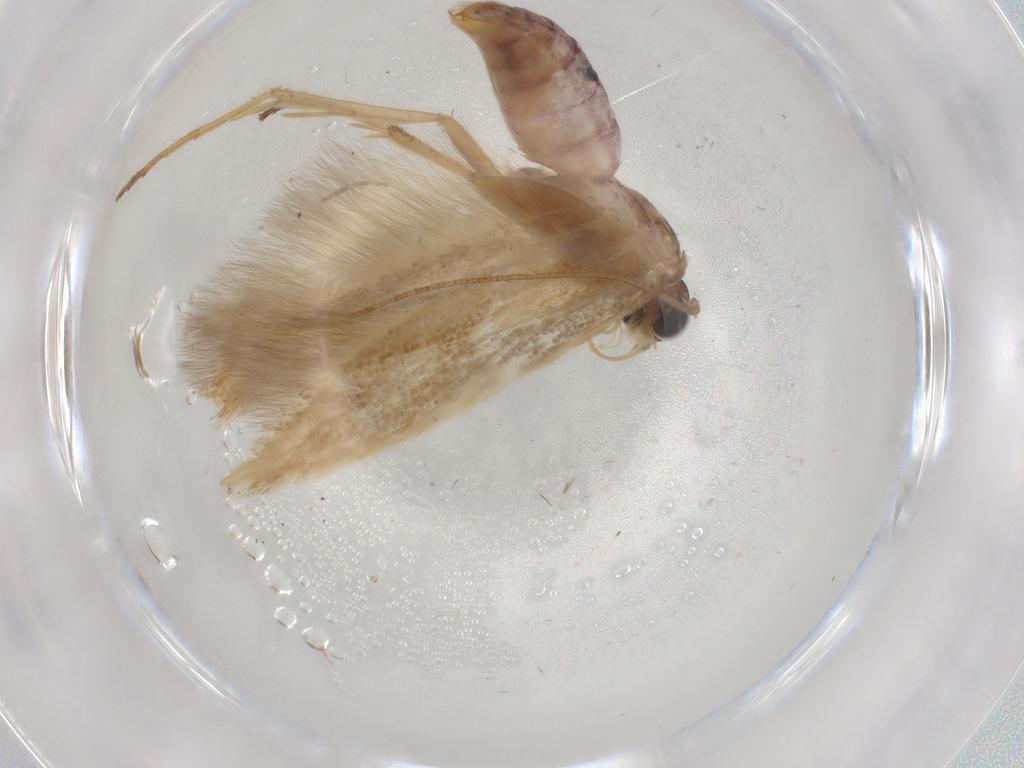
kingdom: Animalia
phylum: Arthropoda
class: Insecta
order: Lepidoptera
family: Scythrididae
